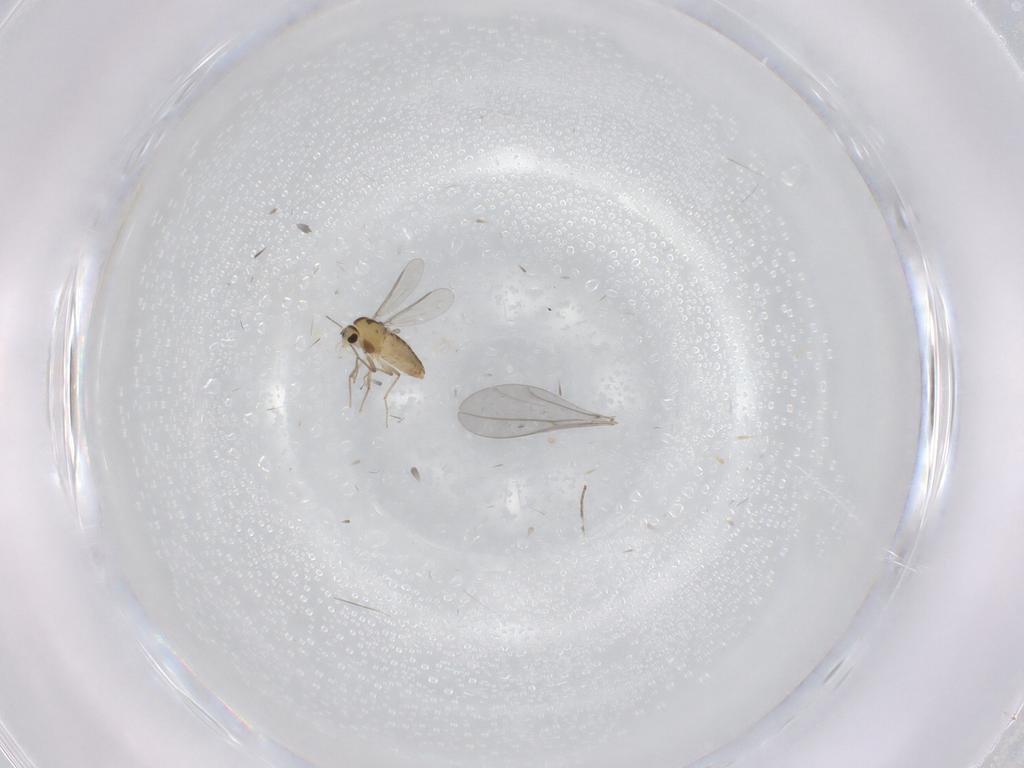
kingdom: Animalia
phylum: Arthropoda
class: Insecta
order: Diptera
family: Chironomidae
